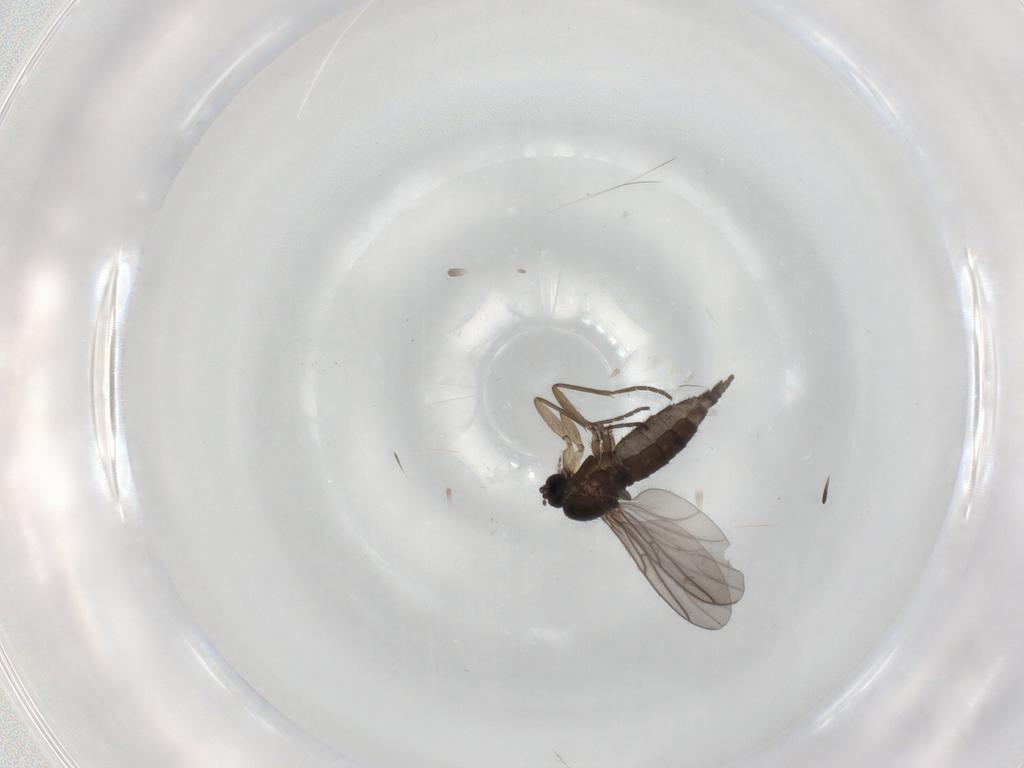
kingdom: Animalia
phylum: Arthropoda
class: Insecta
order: Diptera
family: Sciaridae
